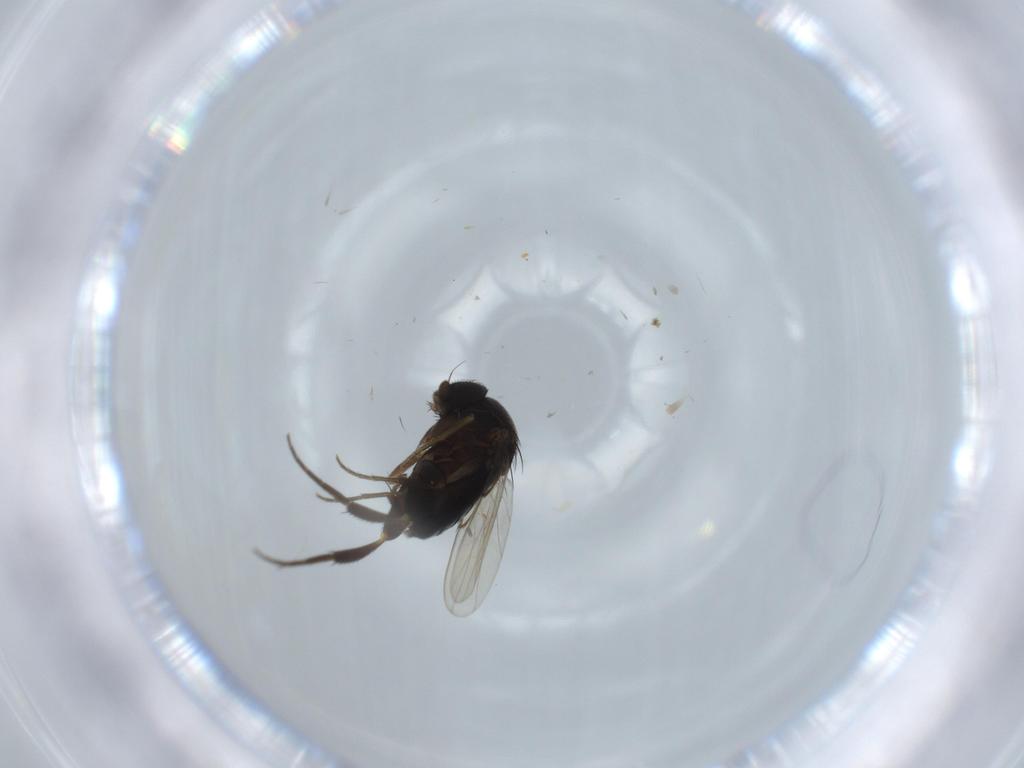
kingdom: Animalia
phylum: Arthropoda
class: Insecta
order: Diptera
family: Phoridae
